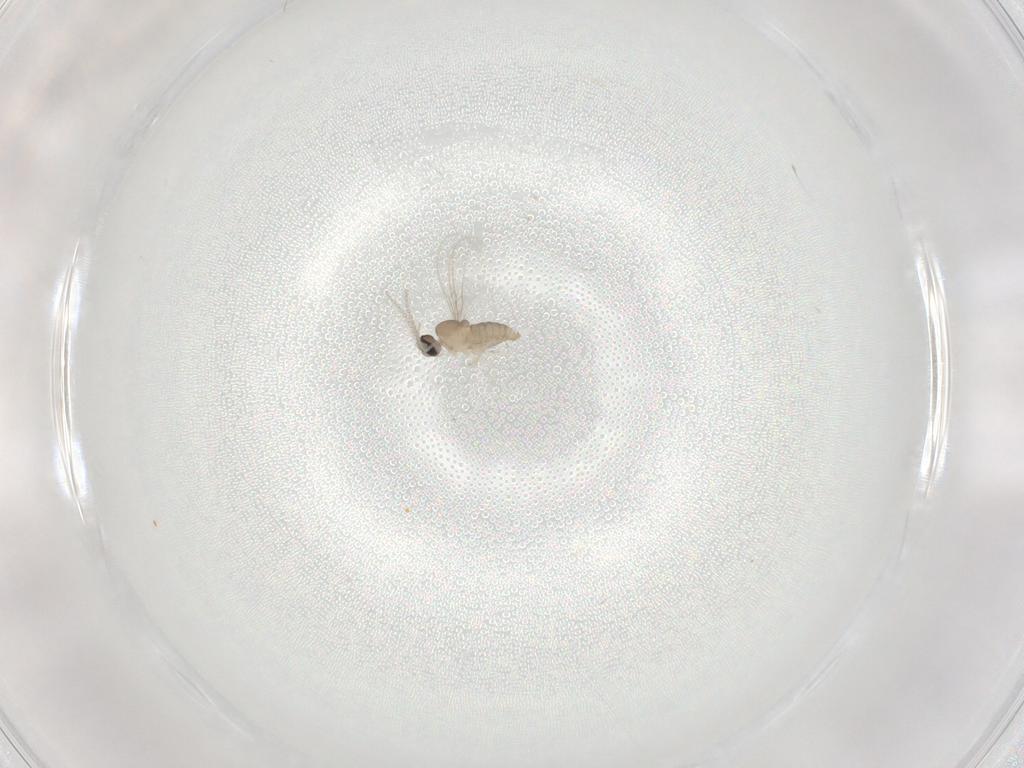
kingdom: Animalia
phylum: Arthropoda
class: Insecta
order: Diptera
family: Cecidomyiidae
